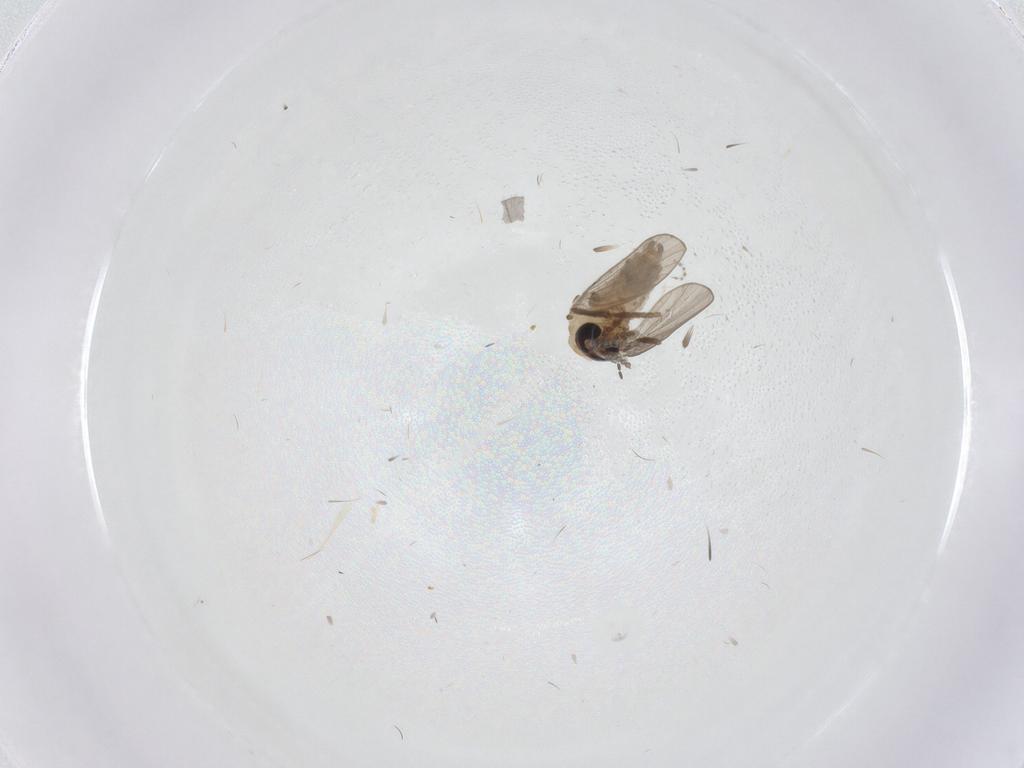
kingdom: Animalia
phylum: Arthropoda
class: Insecta
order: Diptera
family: Psychodidae
